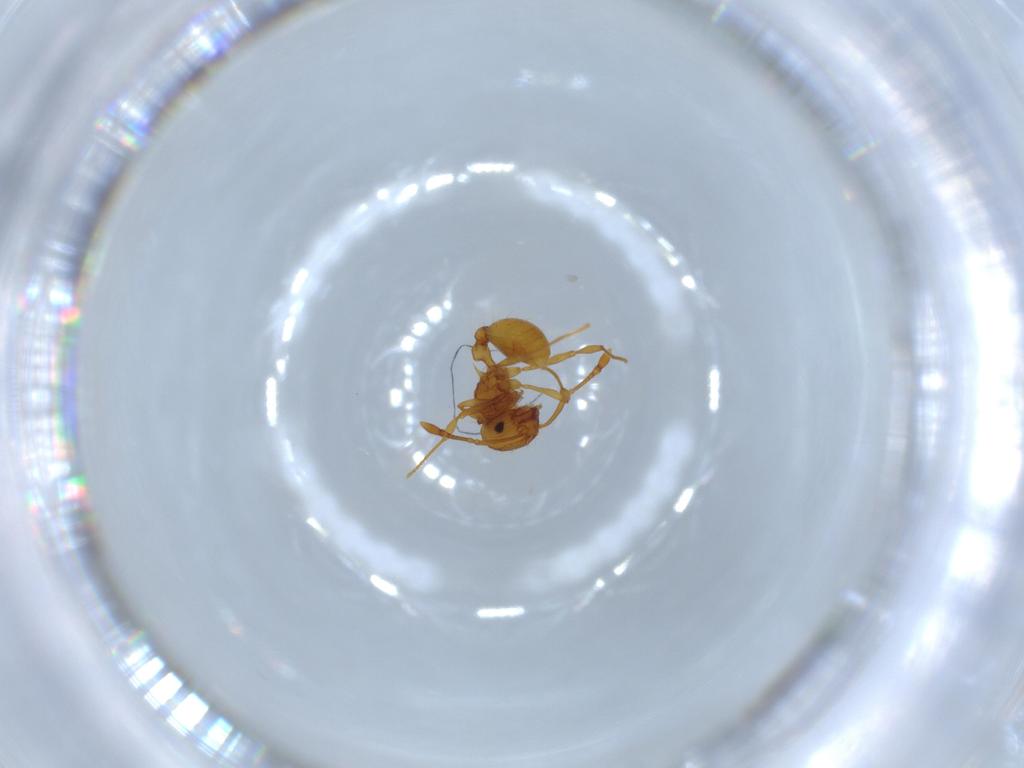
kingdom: Animalia
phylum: Arthropoda
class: Insecta
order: Hymenoptera
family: Formicidae
